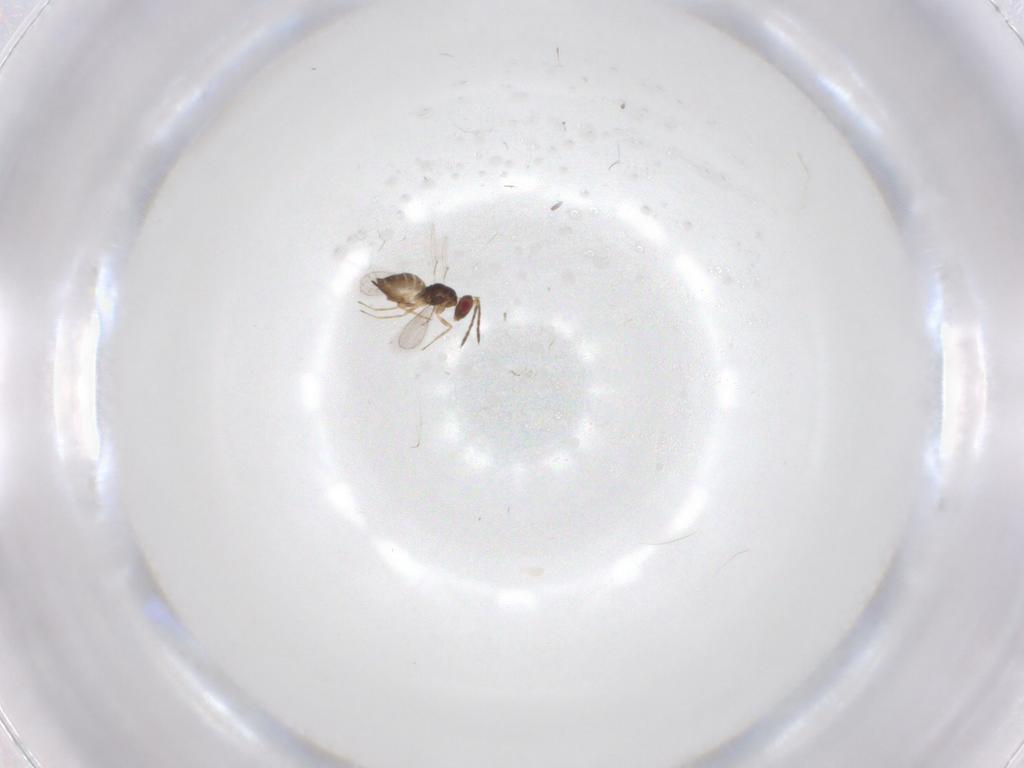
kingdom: Animalia
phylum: Arthropoda
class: Insecta
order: Hymenoptera
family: Eulophidae
